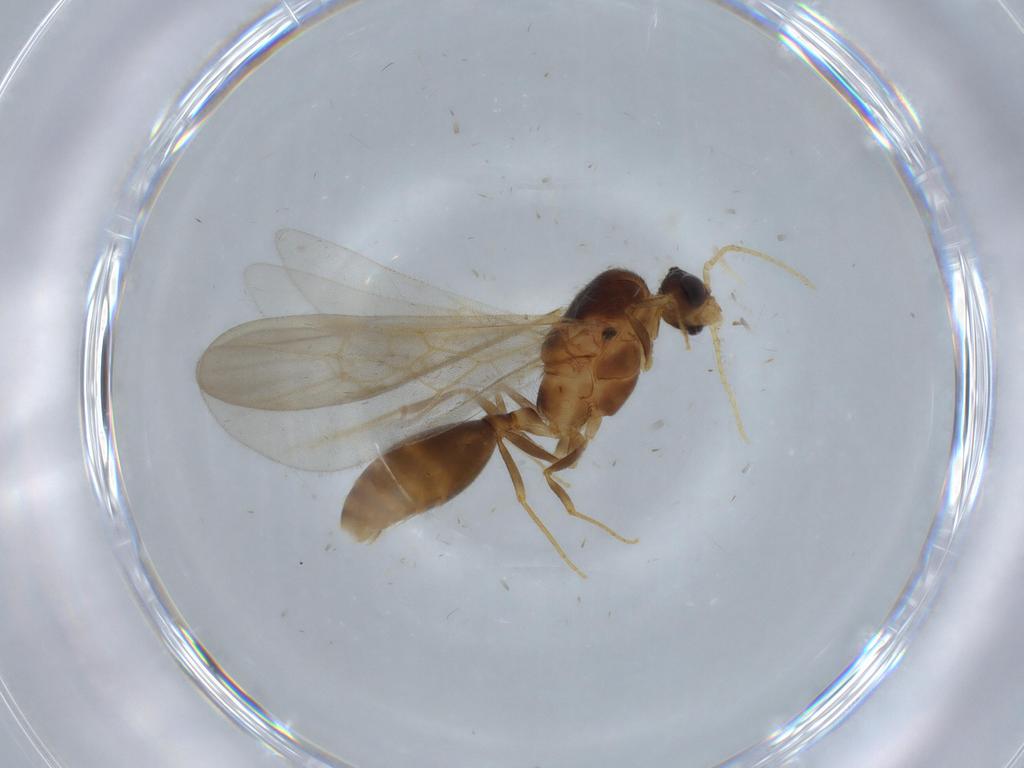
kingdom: Animalia
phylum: Arthropoda
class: Insecta
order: Hymenoptera
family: Formicidae
